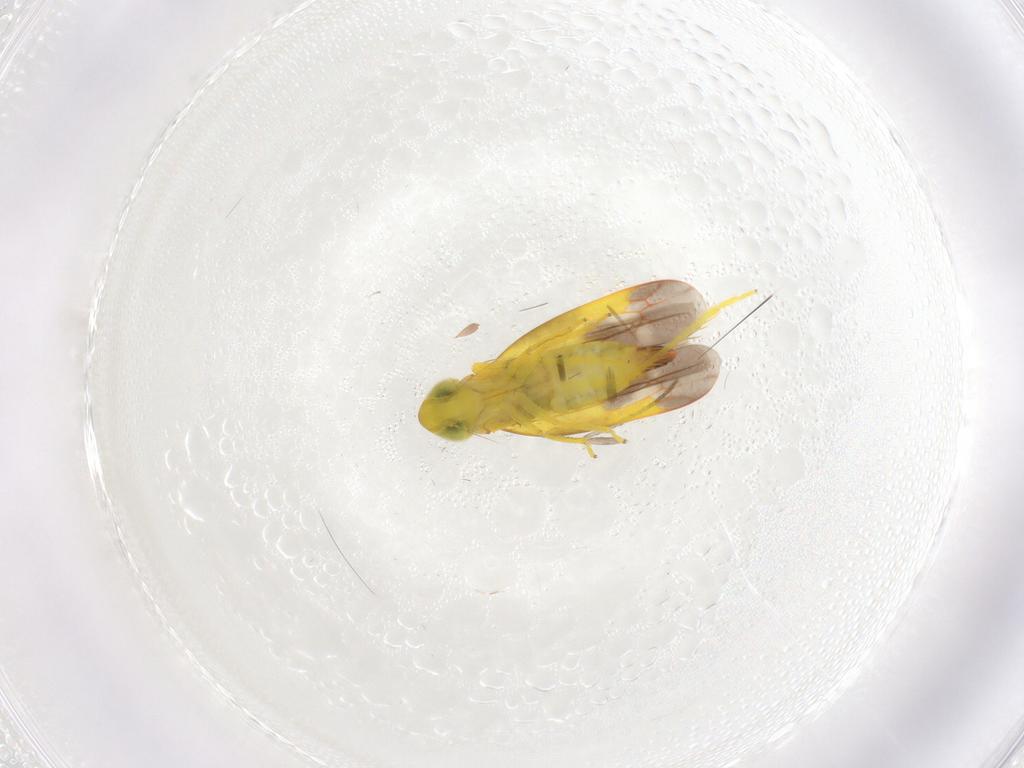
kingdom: Animalia
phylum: Arthropoda
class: Insecta
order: Hemiptera
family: Cicadellidae
